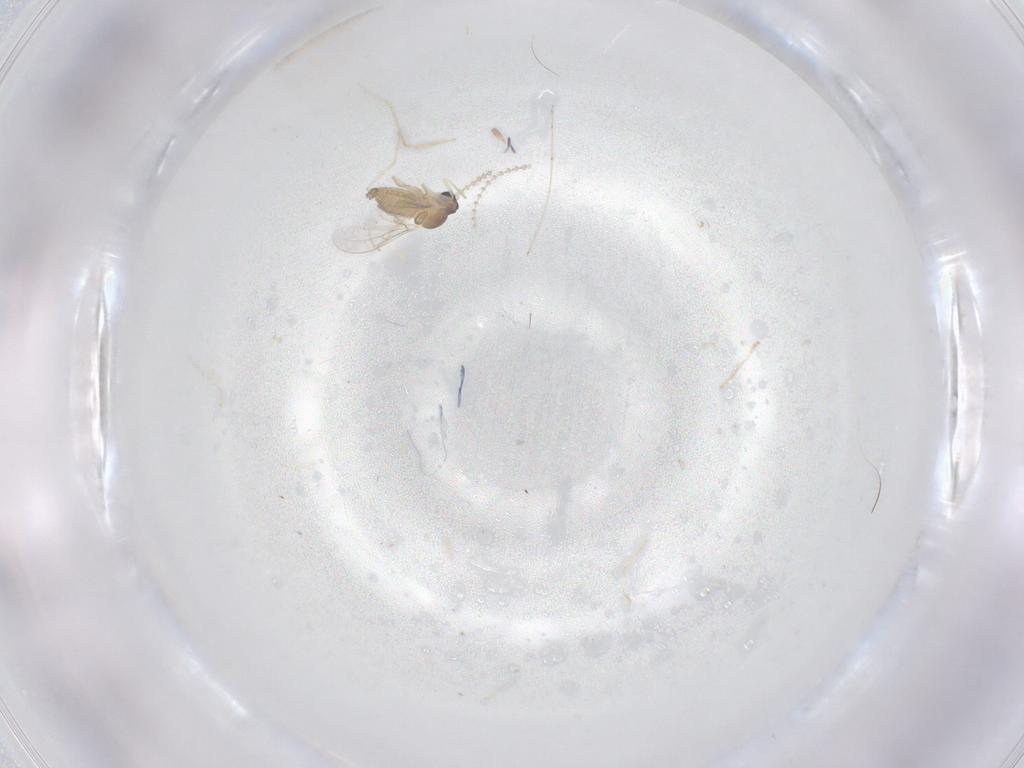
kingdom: Animalia
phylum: Arthropoda
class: Insecta
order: Diptera
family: Cecidomyiidae
